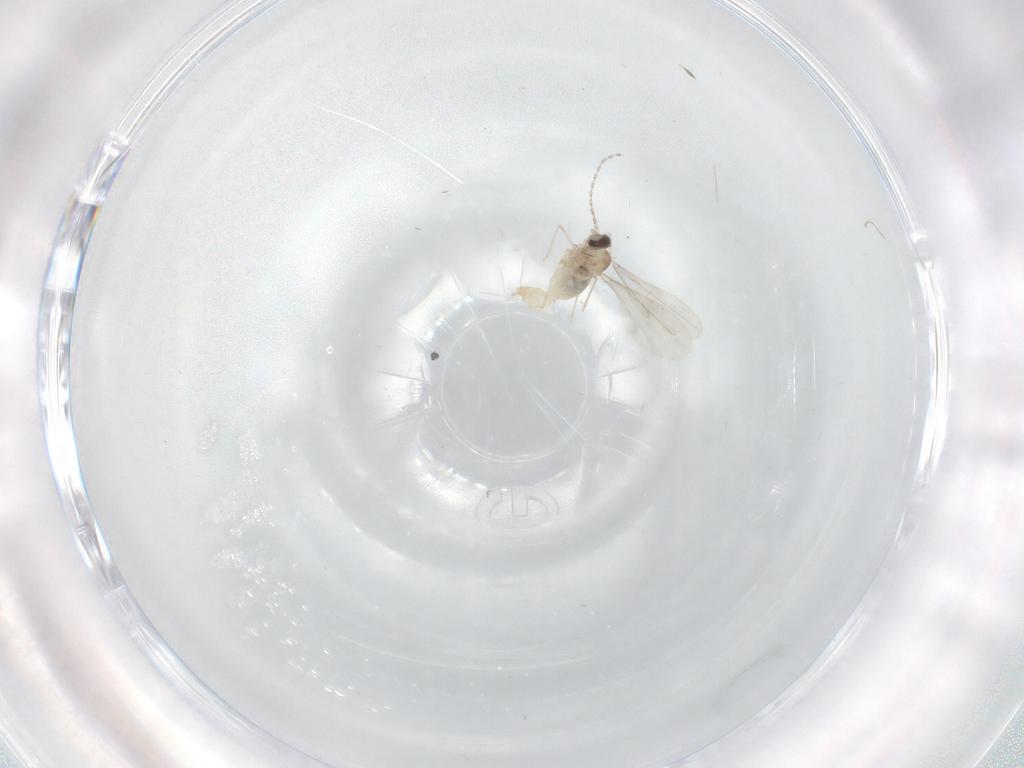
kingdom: Animalia
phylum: Arthropoda
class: Insecta
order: Diptera
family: Cecidomyiidae
